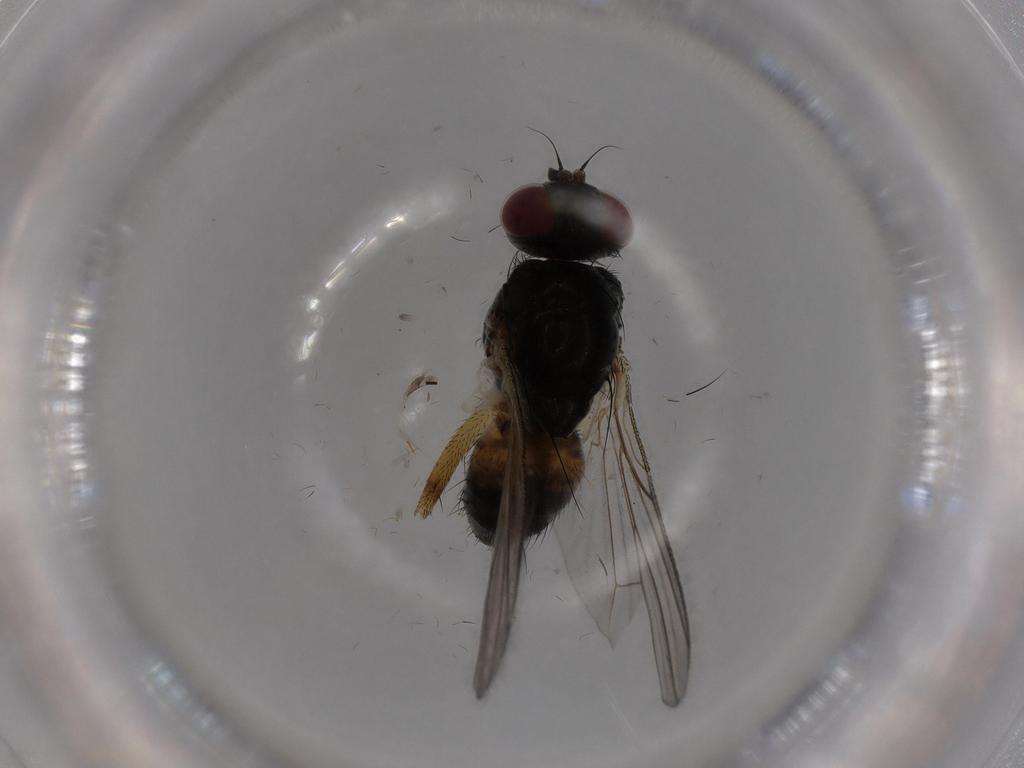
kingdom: Animalia
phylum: Arthropoda
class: Insecta
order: Diptera
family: Muscidae
